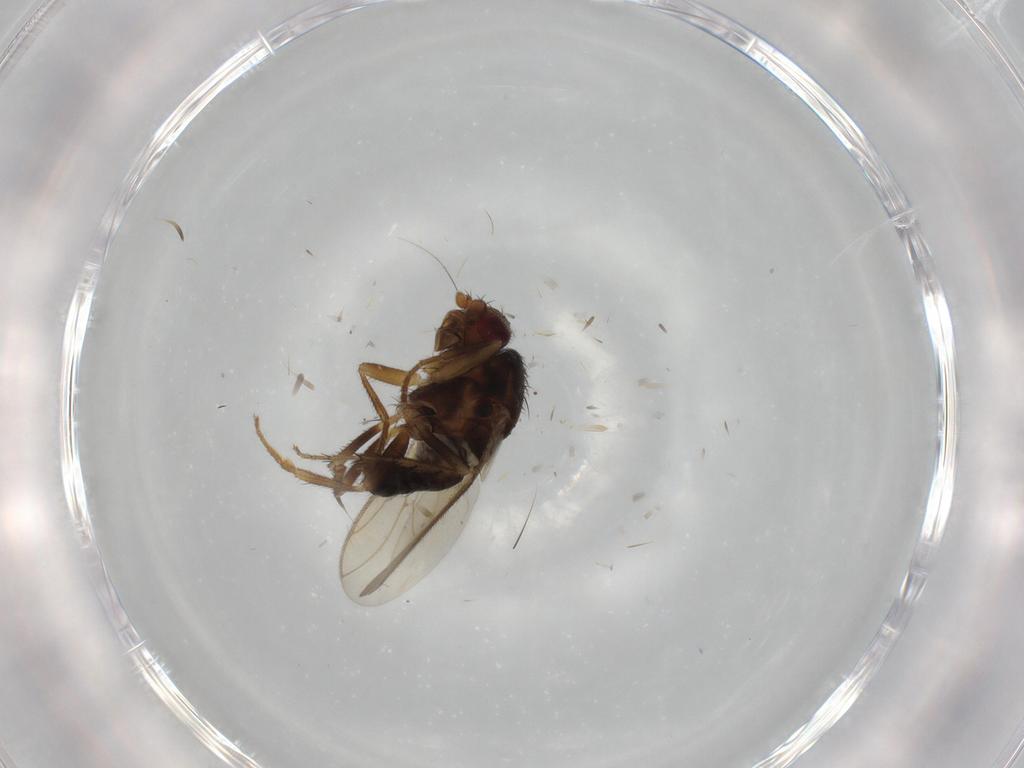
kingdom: Animalia
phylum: Arthropoda
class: Insecta
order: Diptera
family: Sphaeroceridae
